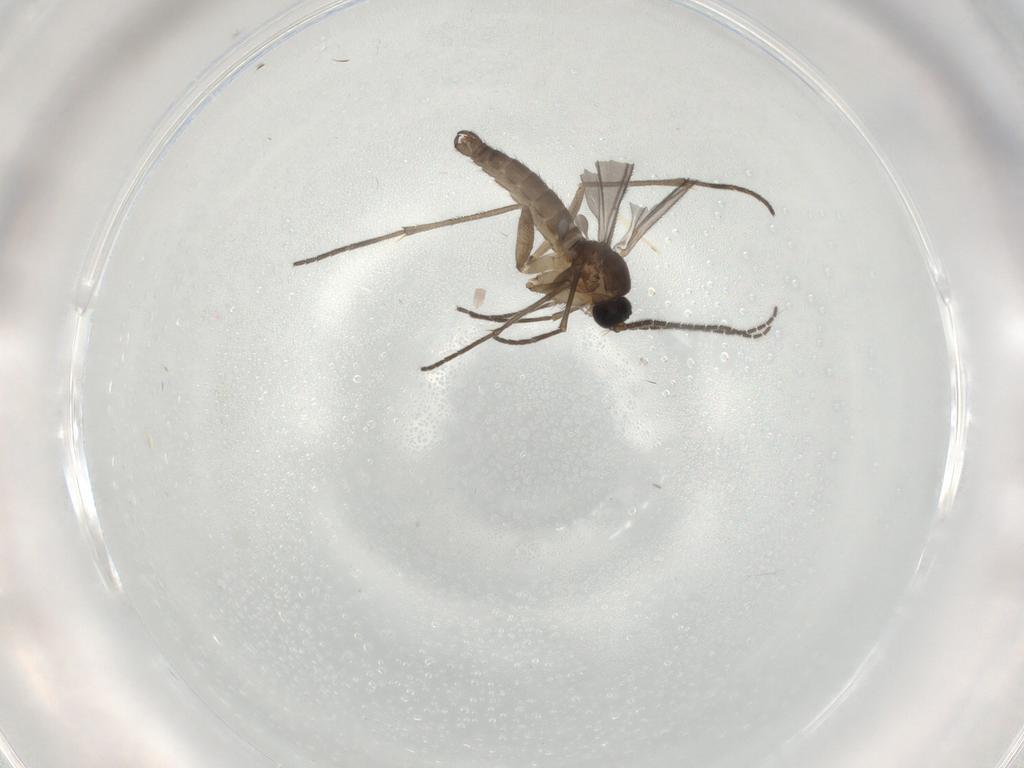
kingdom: Animalia
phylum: Arthropoda
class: Insecta
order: Diptera
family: Sciaridae
